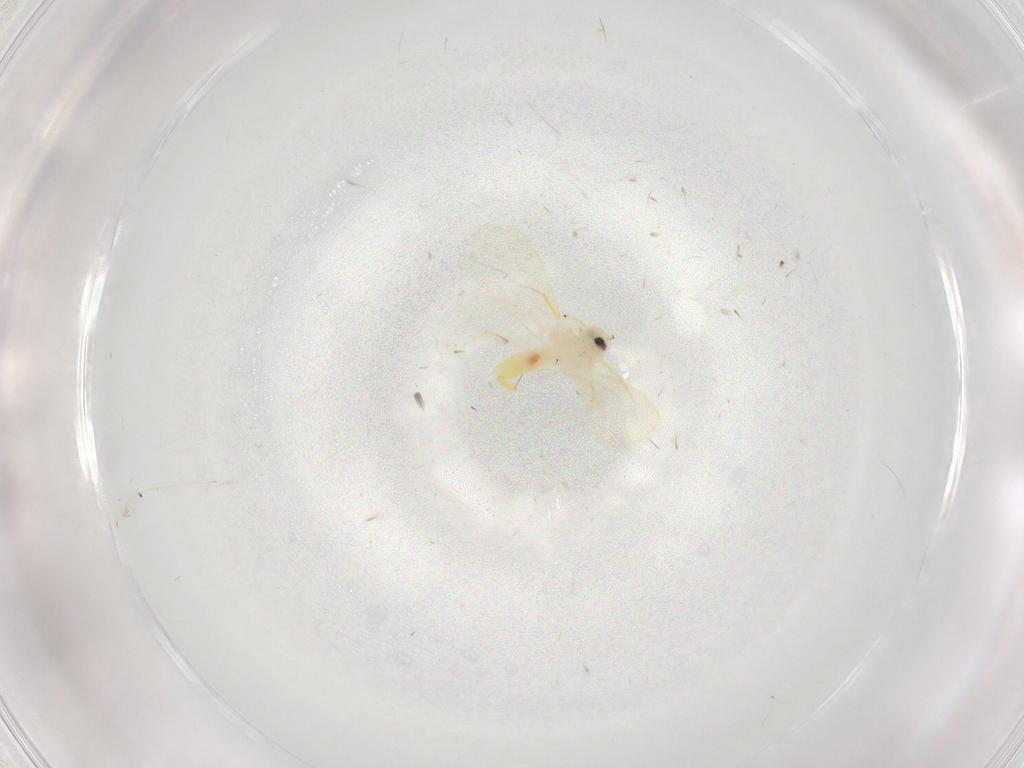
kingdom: Animalia
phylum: Arthropoda
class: Insecta
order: Hemiptera
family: Aleyrodidae
